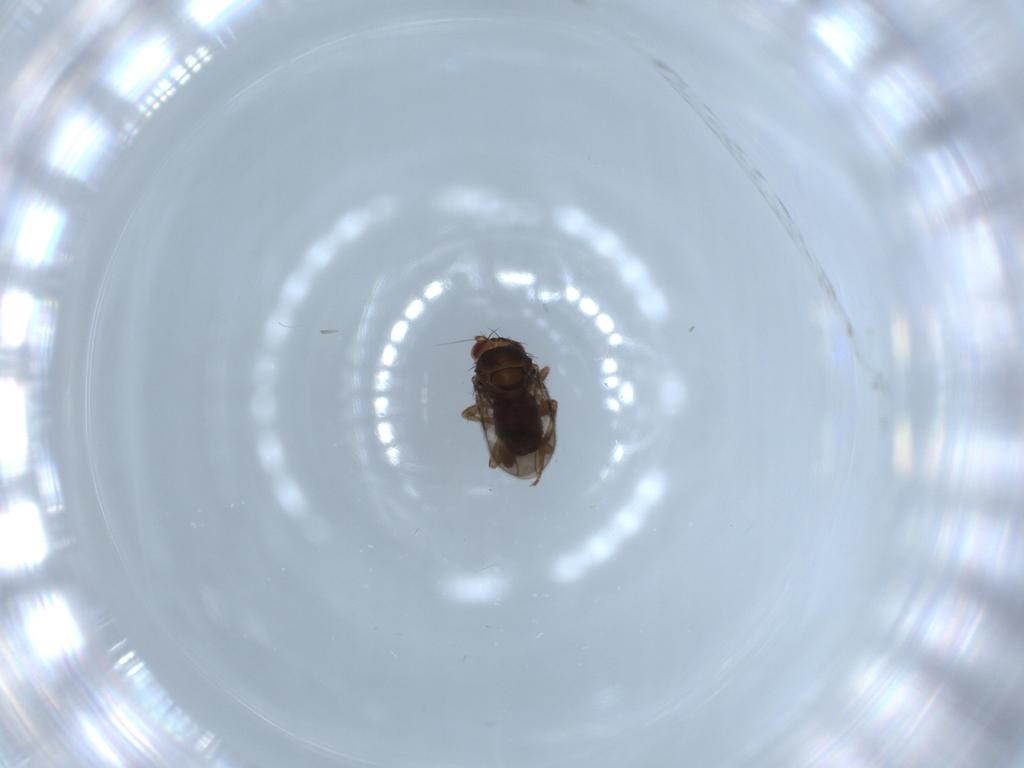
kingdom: Animalia
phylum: Arthropoda
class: Insecta
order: Diptera
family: Sphaeroceridae
